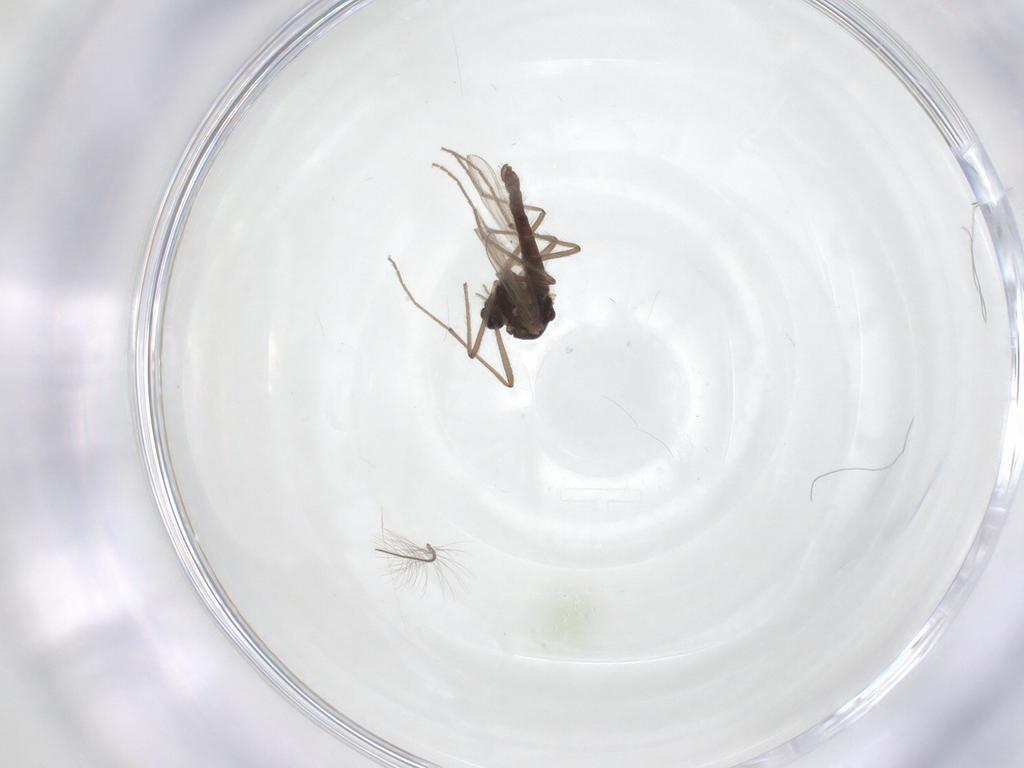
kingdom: Animalia
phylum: Arthropoda
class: Insecta
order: Diptera
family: Chironomidae
